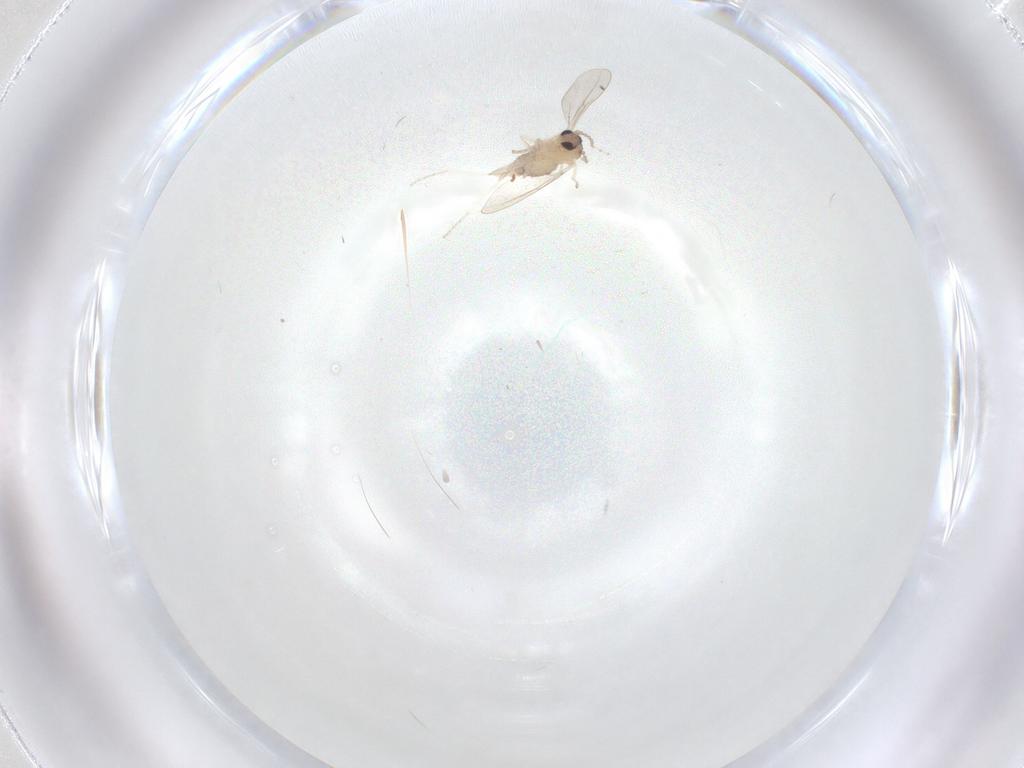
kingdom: Animalia
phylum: Arthropoda
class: Insecta
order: Diptera
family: Cecidomyiidae
